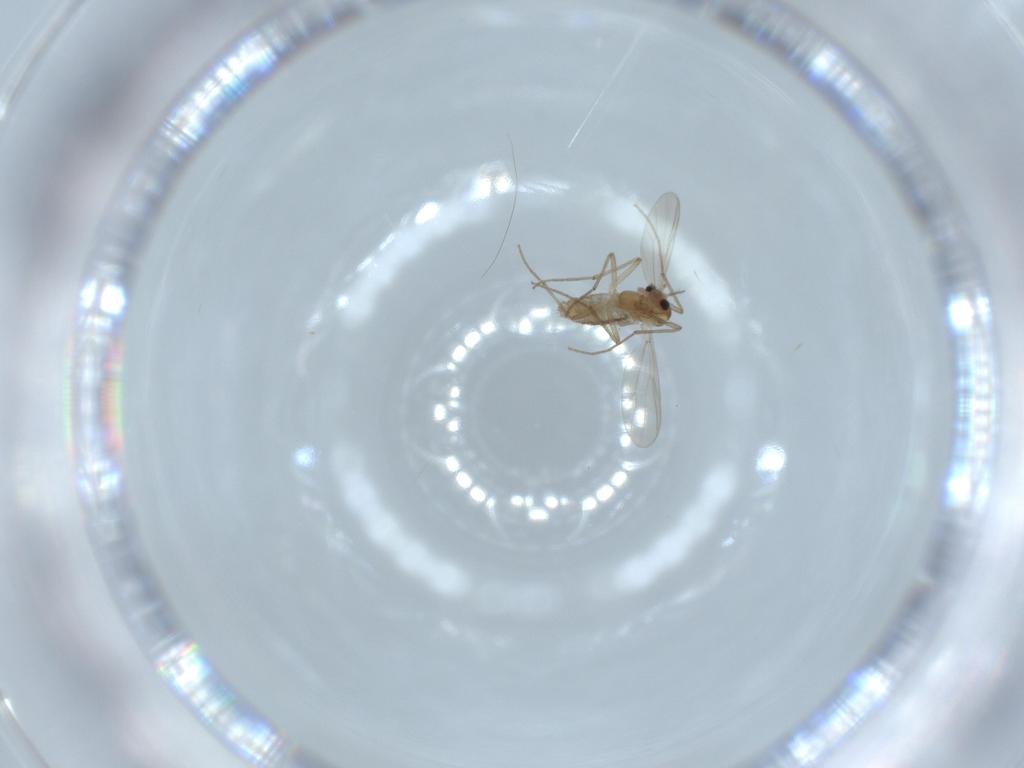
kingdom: Animalia
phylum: Arthropoda
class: Insecta
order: Diptera
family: Chironomidae
